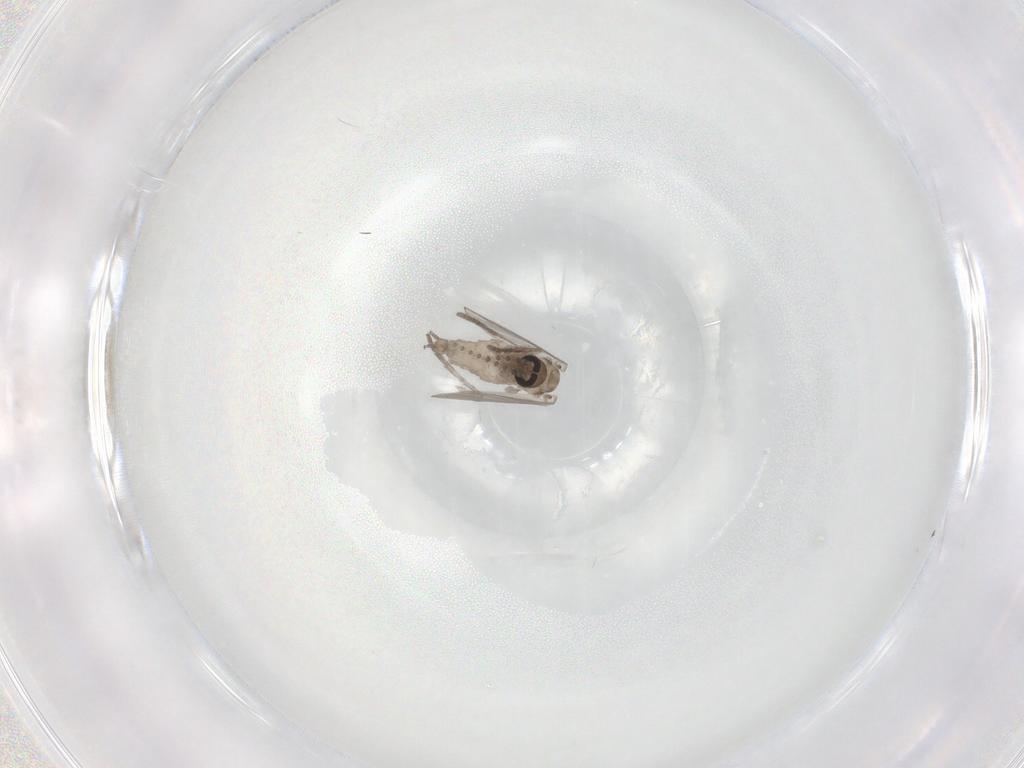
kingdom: Animalia
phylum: Arthropoda
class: Insecta
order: Diptera
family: Psychodidae
